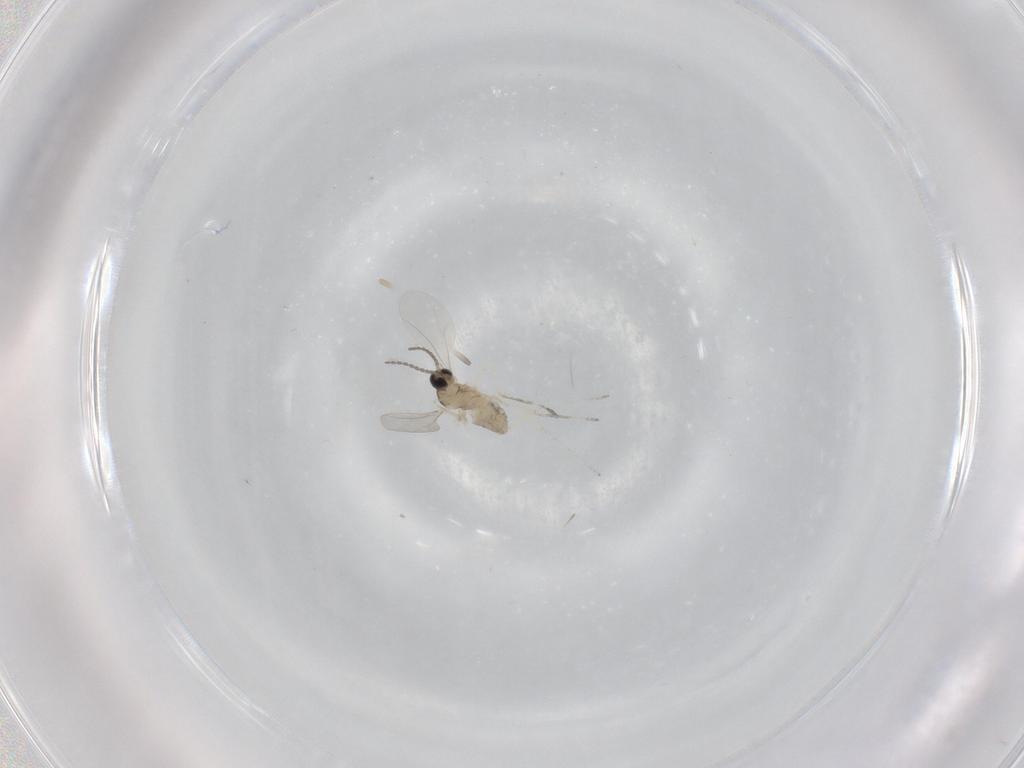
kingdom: Animalia
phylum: Arthropoda
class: Insecta
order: Diptera
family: Cecidomyiidae
